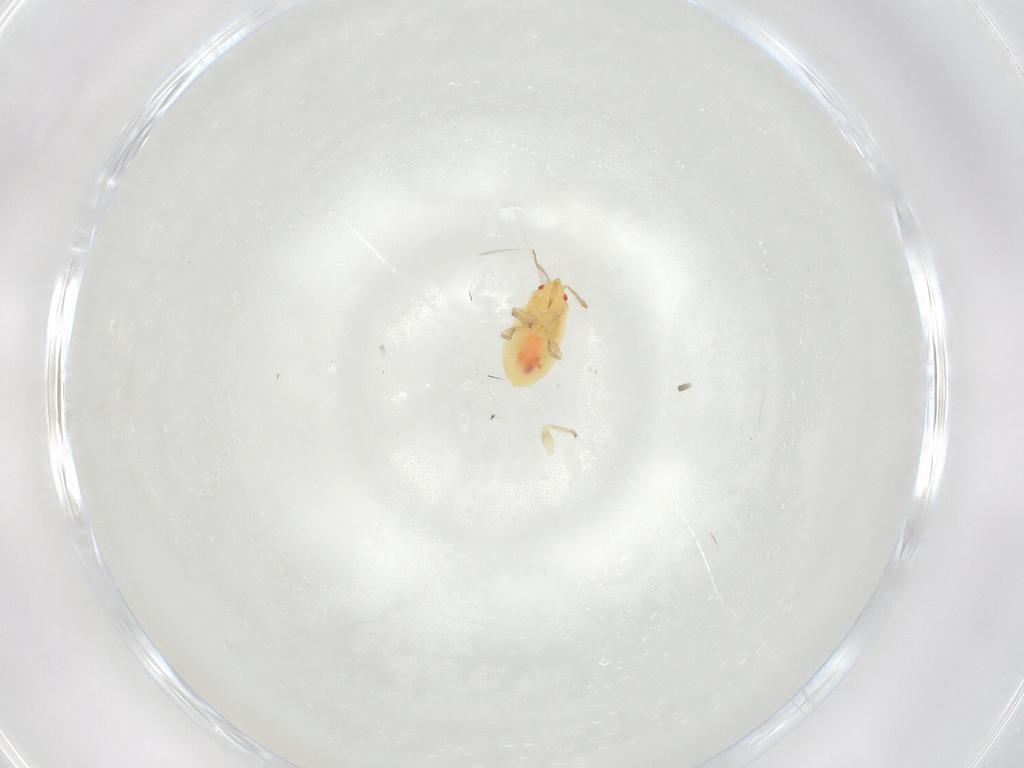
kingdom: Animalia
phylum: Arthropoda
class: Insecta
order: Hemiptera
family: Anthocoridae
